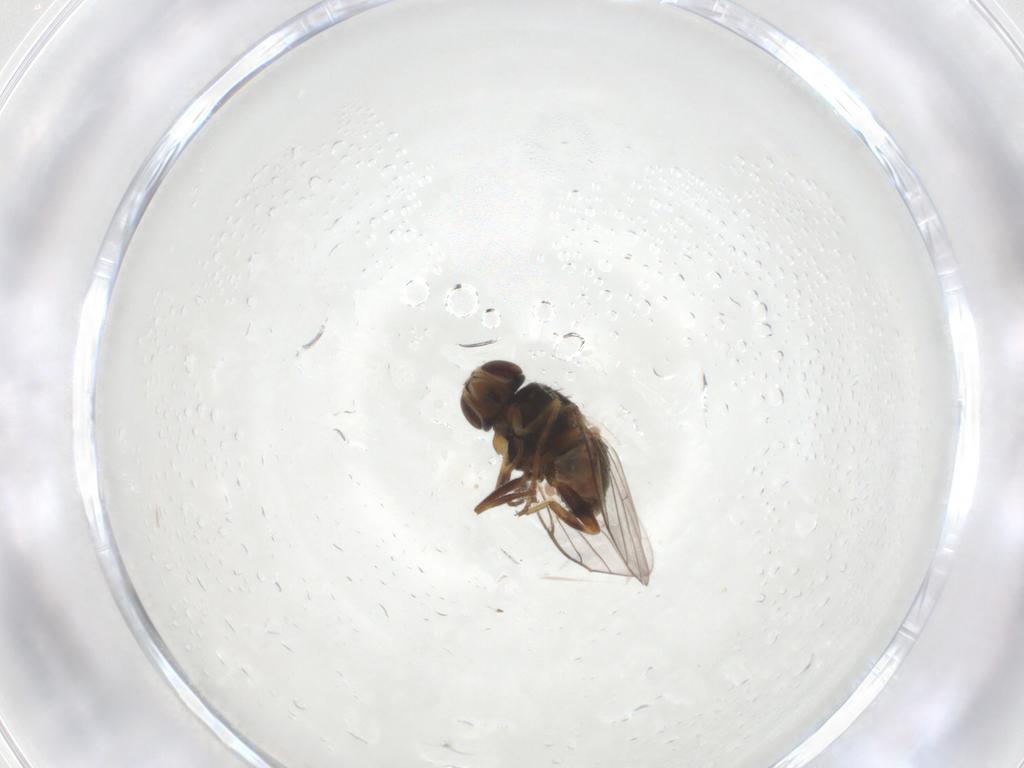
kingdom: Animalia
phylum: Arthropoda
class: Insecta
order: Diptera
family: Chloropidae
